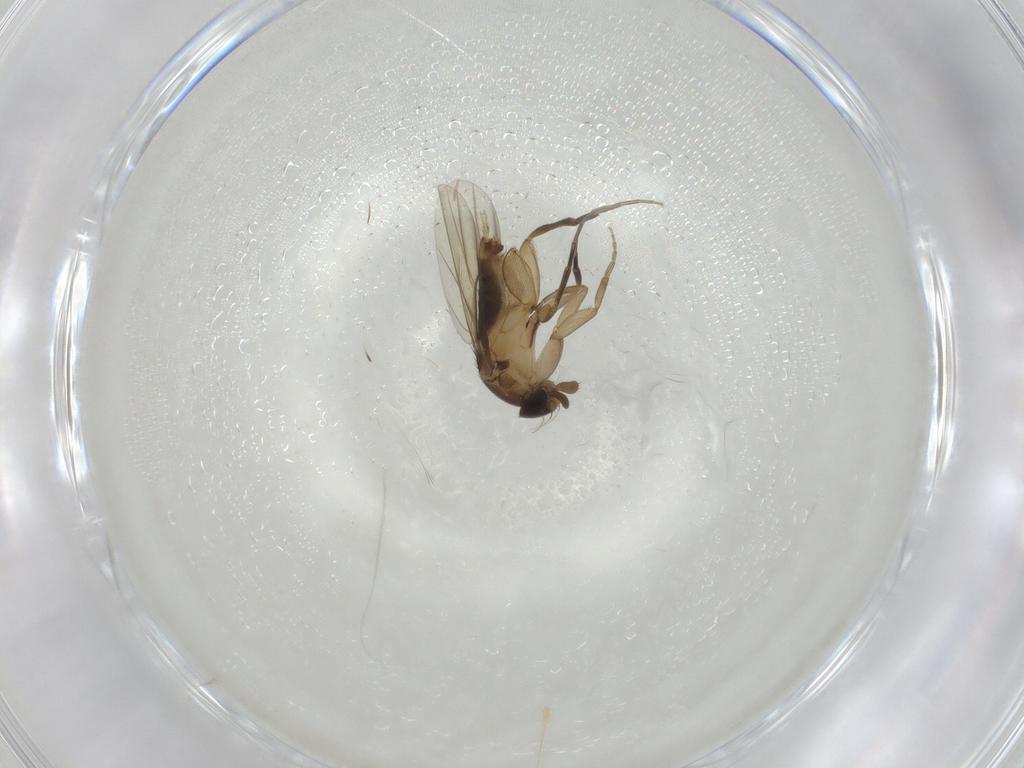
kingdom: Animalia
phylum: Arthropoda
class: Insecta
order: Diptera
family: Phoridae
